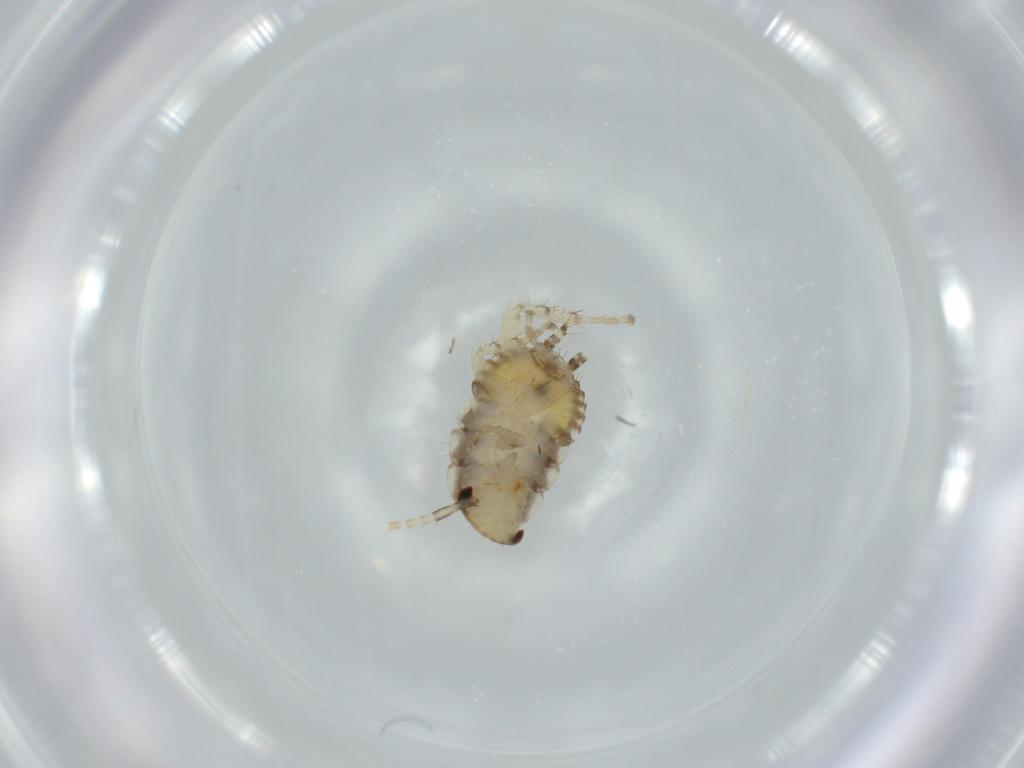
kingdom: Animalia
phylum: Arthropoda
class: Insecta
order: Blattodea
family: Ectobiidae
